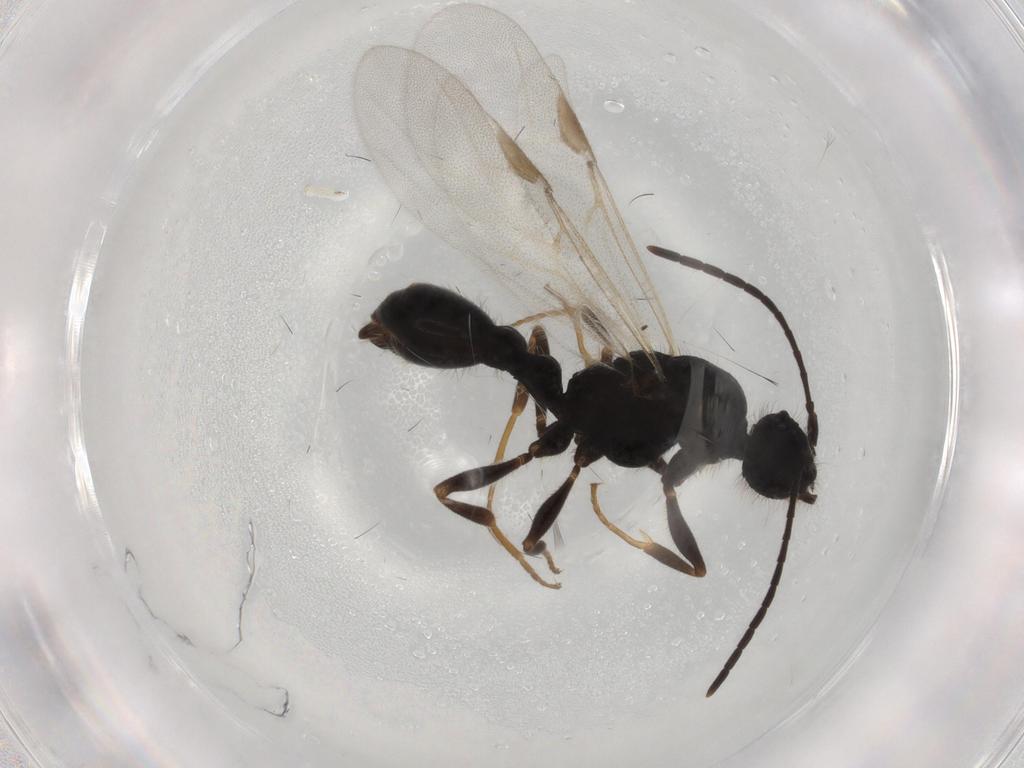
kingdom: Animalia
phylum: Arthropoda
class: Insecta
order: Hymenoptera
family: Formicidae
